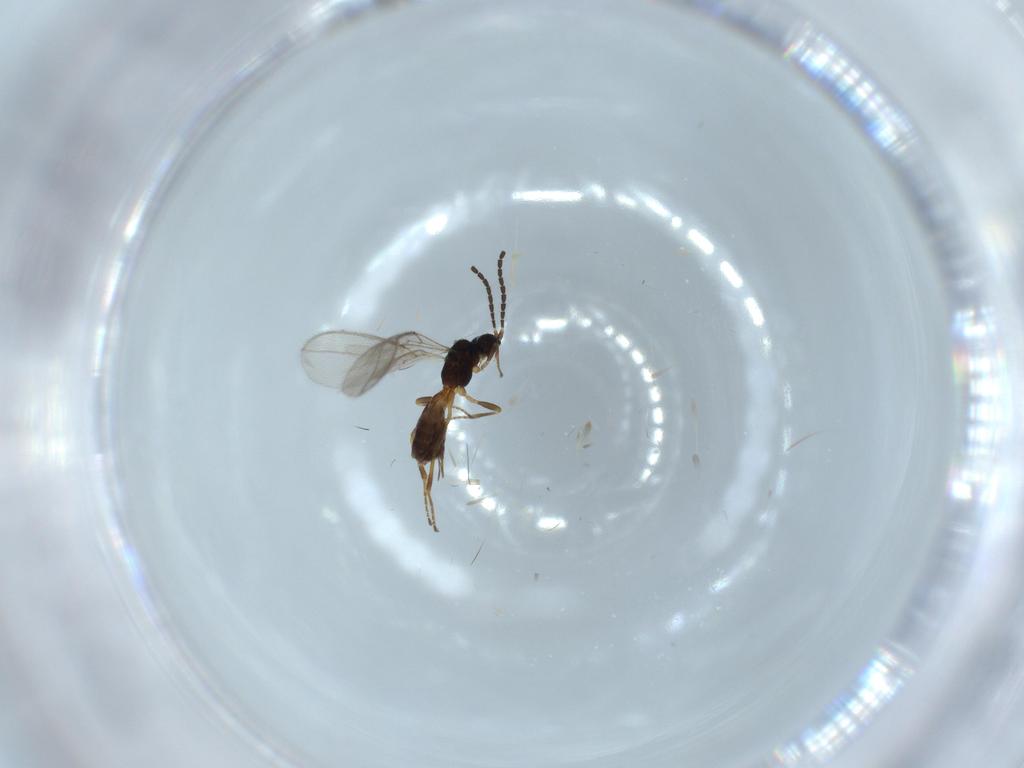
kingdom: Animalia
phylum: Arthropoda
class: Insecta
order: Hymenoptera
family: Braconidae
